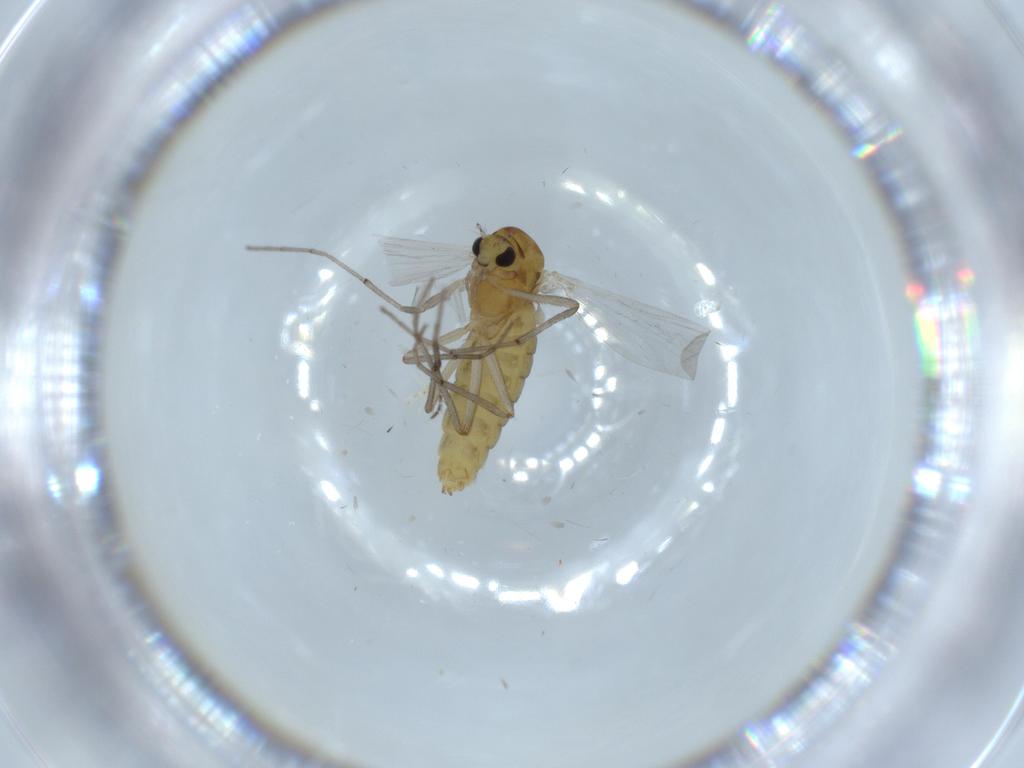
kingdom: Animalia
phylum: Arthropoda
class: Insecta
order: Diptera
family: Chironomidae
